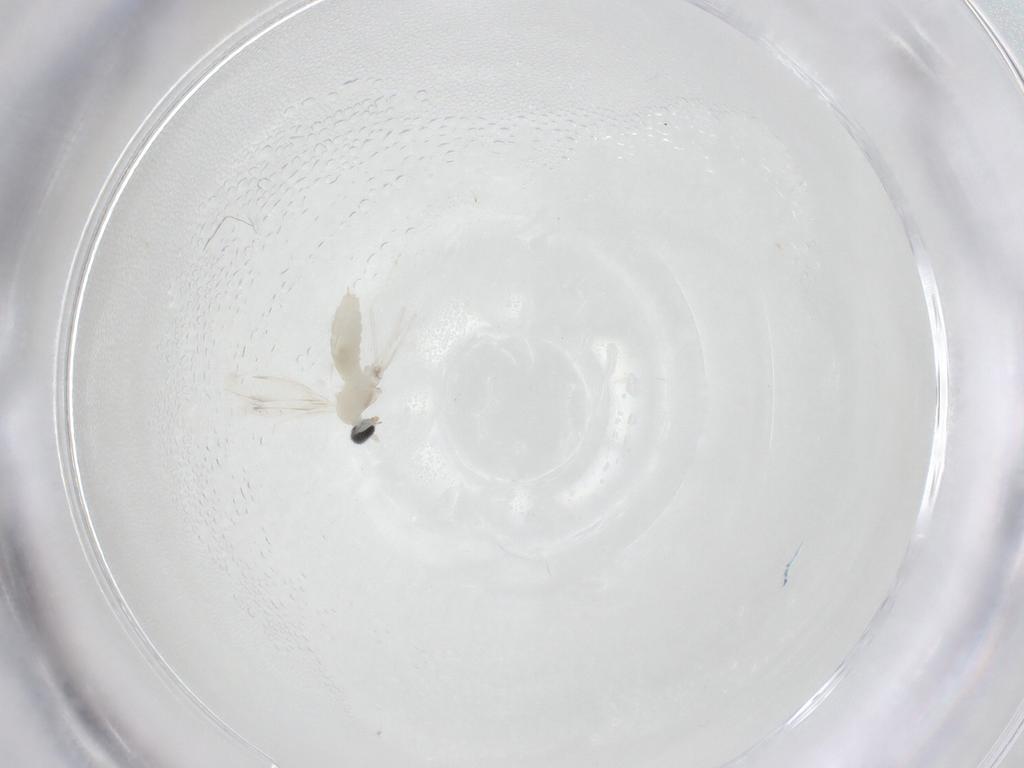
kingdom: Animalia
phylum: Arthropoda
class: Insecta
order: Diptera
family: Cecidomyiidae
